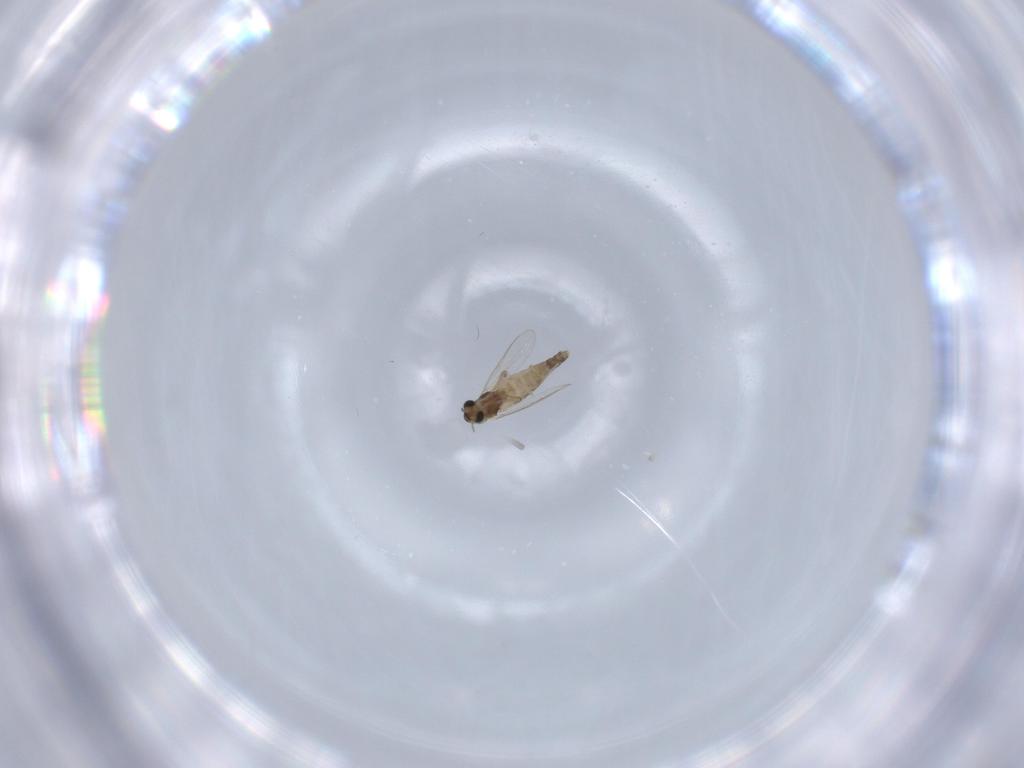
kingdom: Animalia
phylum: Arthropoda
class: Insecta
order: Diptera
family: Chironomidae
